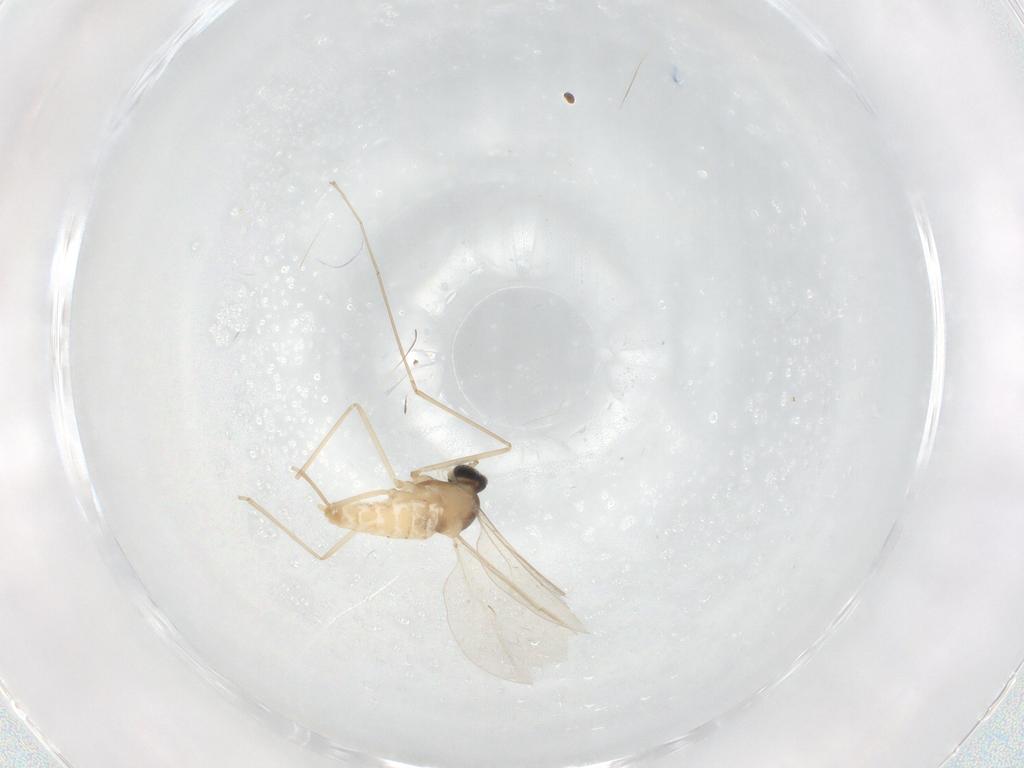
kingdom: Animalia
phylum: Arthropoda
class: Insecta
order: Diptera
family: Cecidomyiidae
